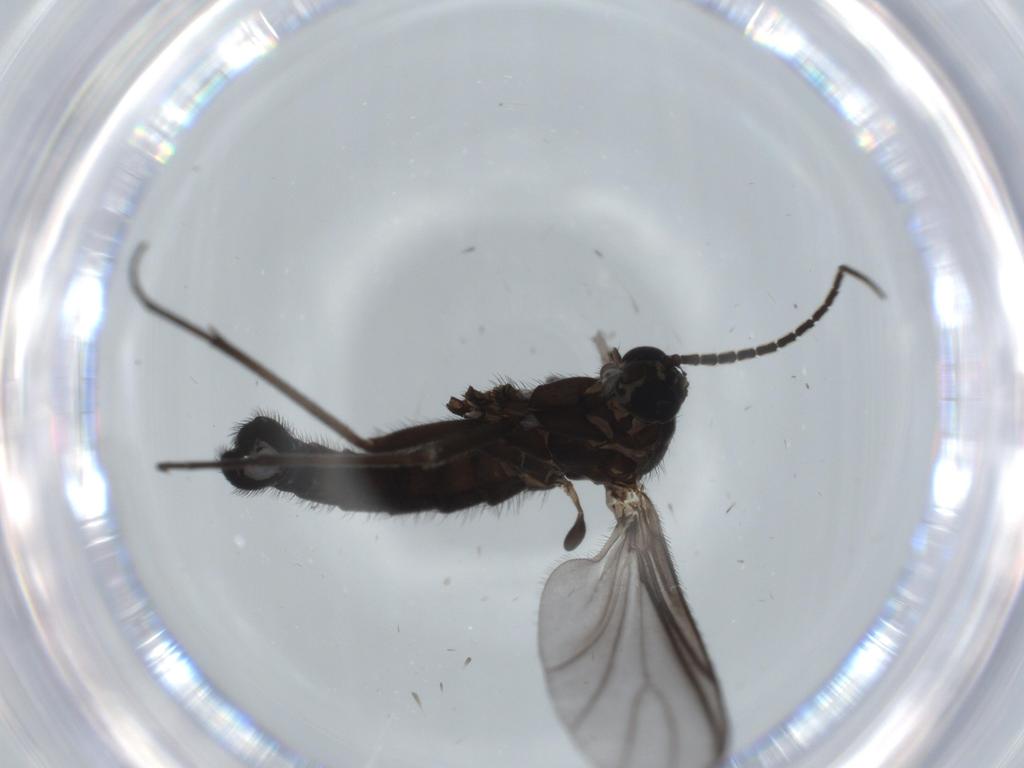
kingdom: Animalia
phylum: Arthropoda
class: Insecta
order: Diptera
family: Milichiidae
